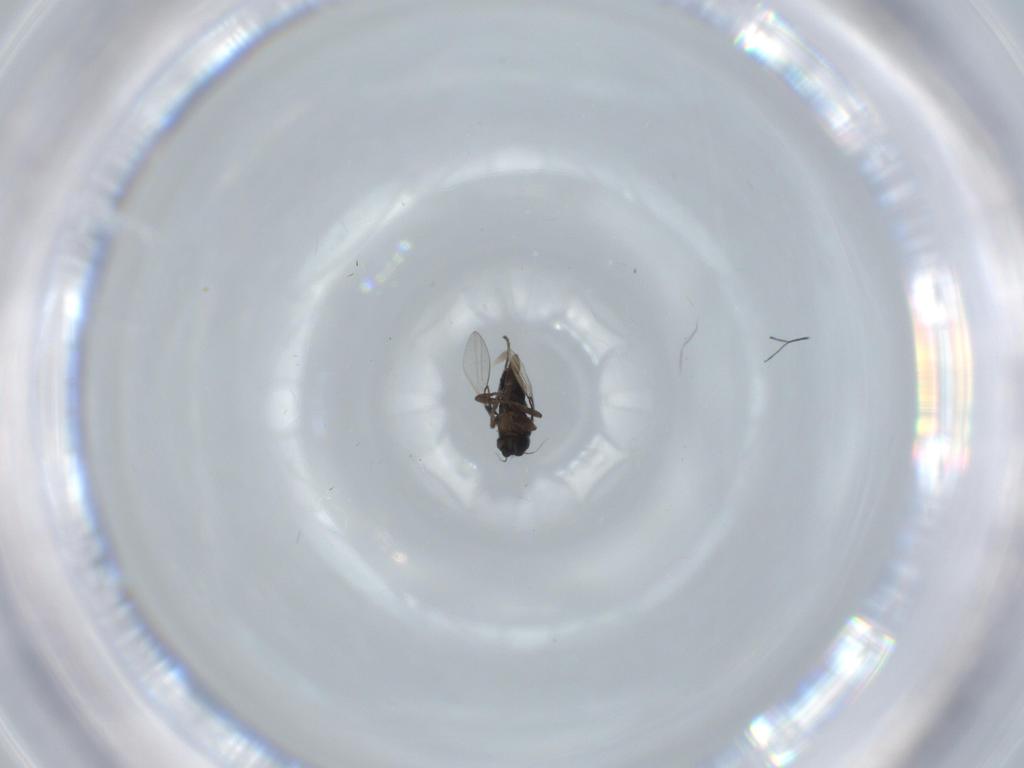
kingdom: Animalia
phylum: Arthropoda
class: Insecta
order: Diptera
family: Phoridae
